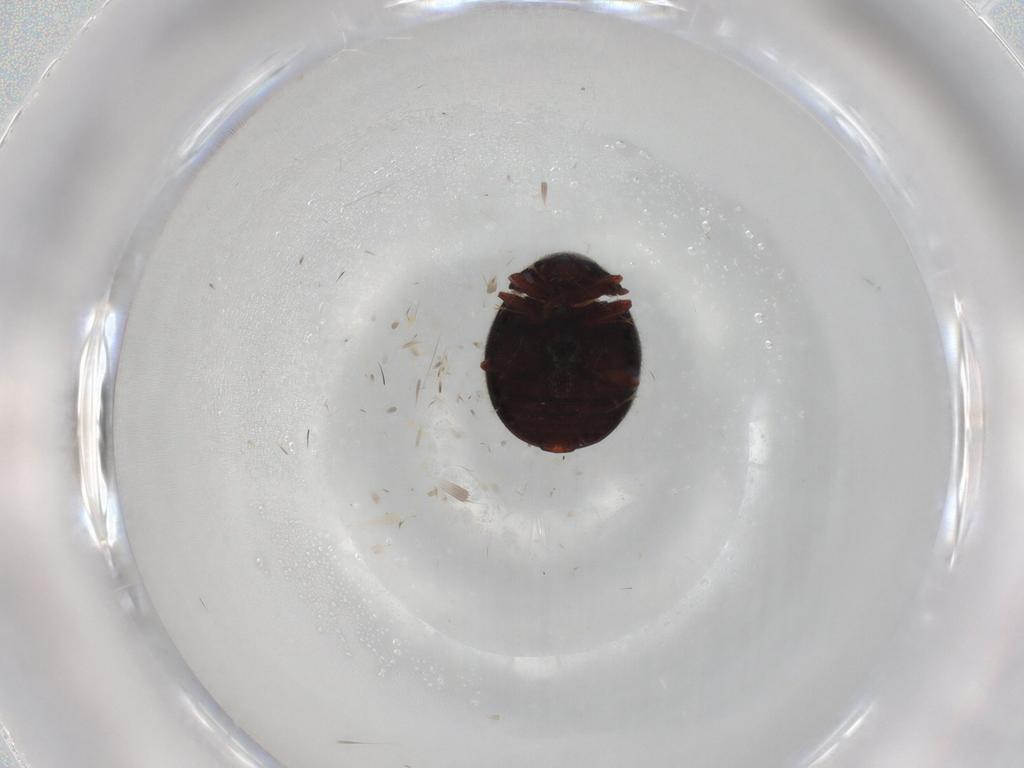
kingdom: Animalia
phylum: Arthropoda
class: Insecta
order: Coleoptera
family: Sphindidae
